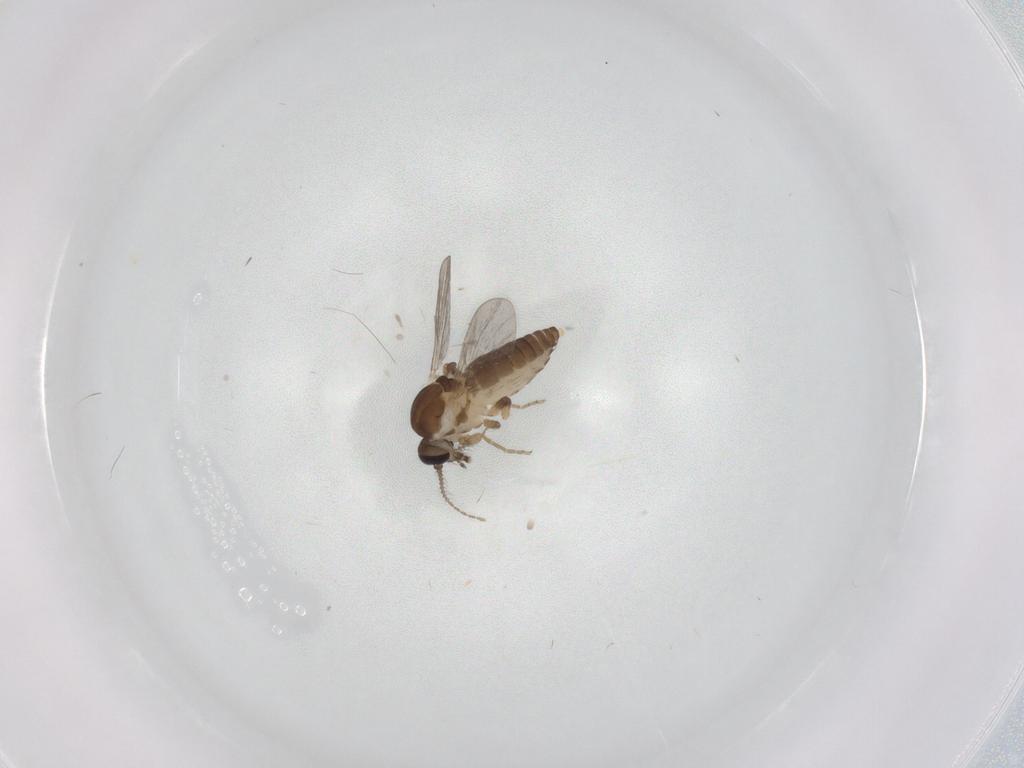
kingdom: Animalia
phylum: Arthropoda
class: Insecta
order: Diptera
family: Ceratopogonidae
